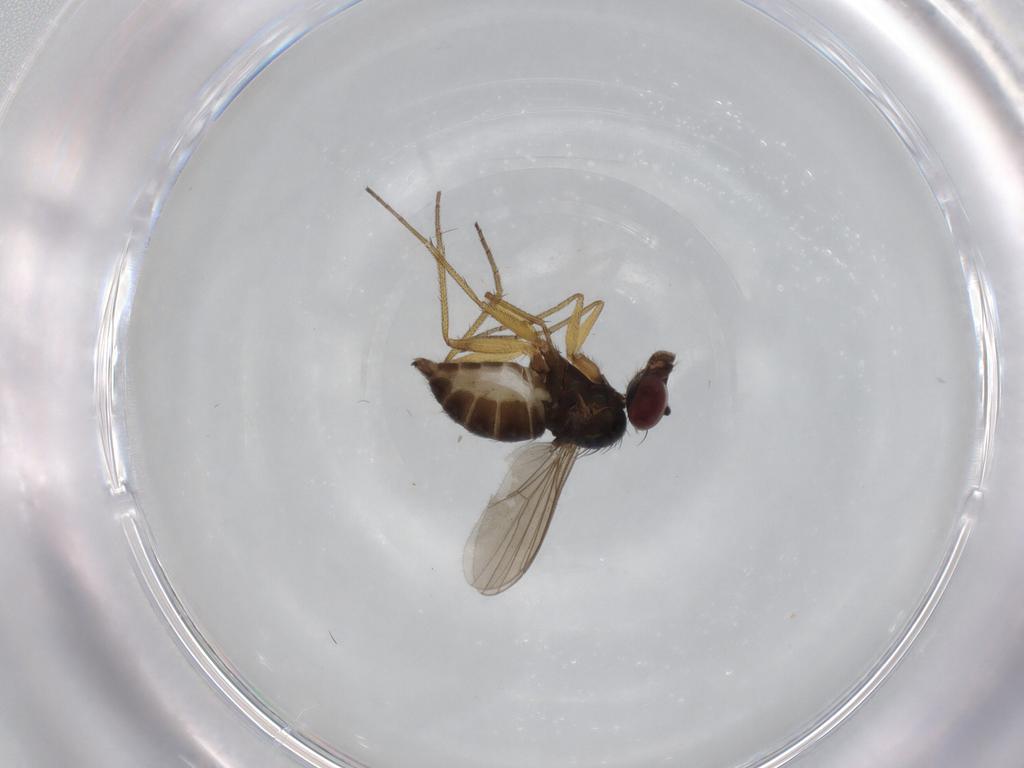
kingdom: Animalia
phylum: Arthropoda
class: Insecta
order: Diptera
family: Dolichopodidae
